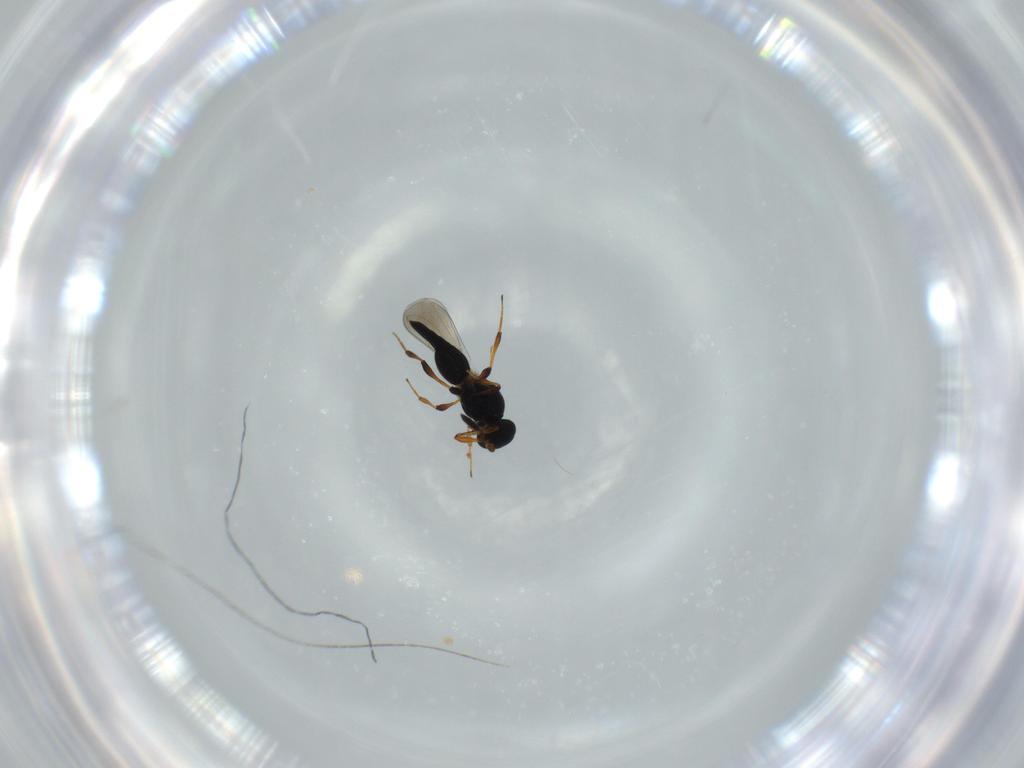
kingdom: Animalia
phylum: Arthropoda
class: Insecta
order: Hymenoptera
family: Platygastridae
